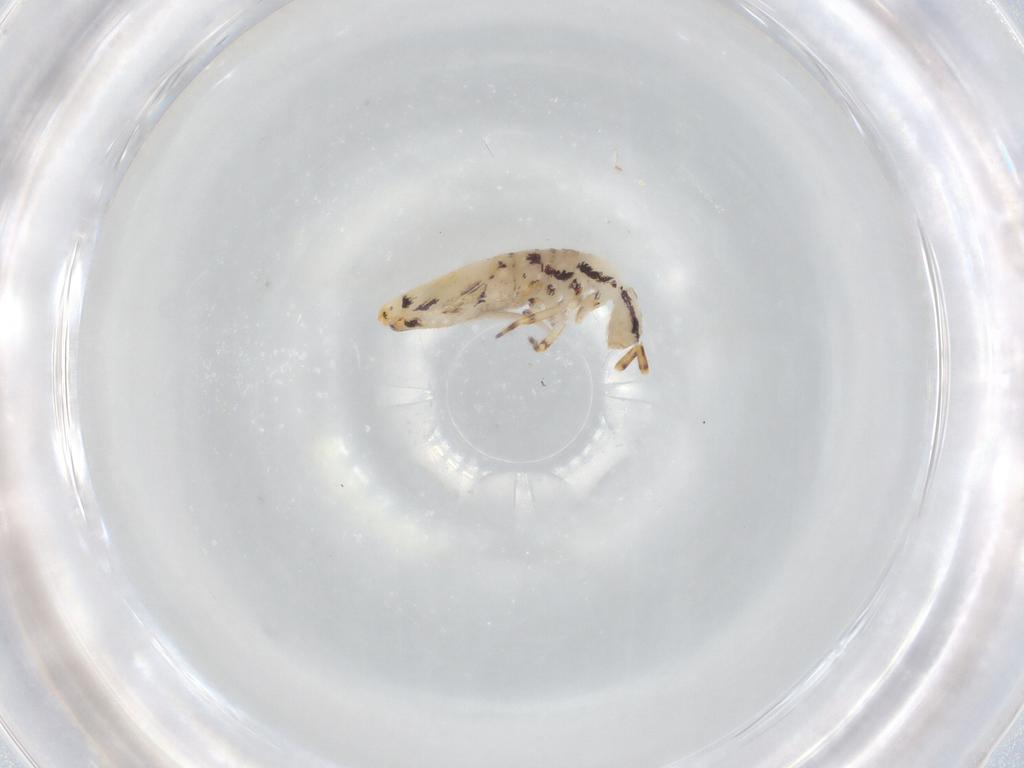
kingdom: Animalia
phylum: Arthropoda
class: Collembola
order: Entomobryomorpha
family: Entomobryidae
